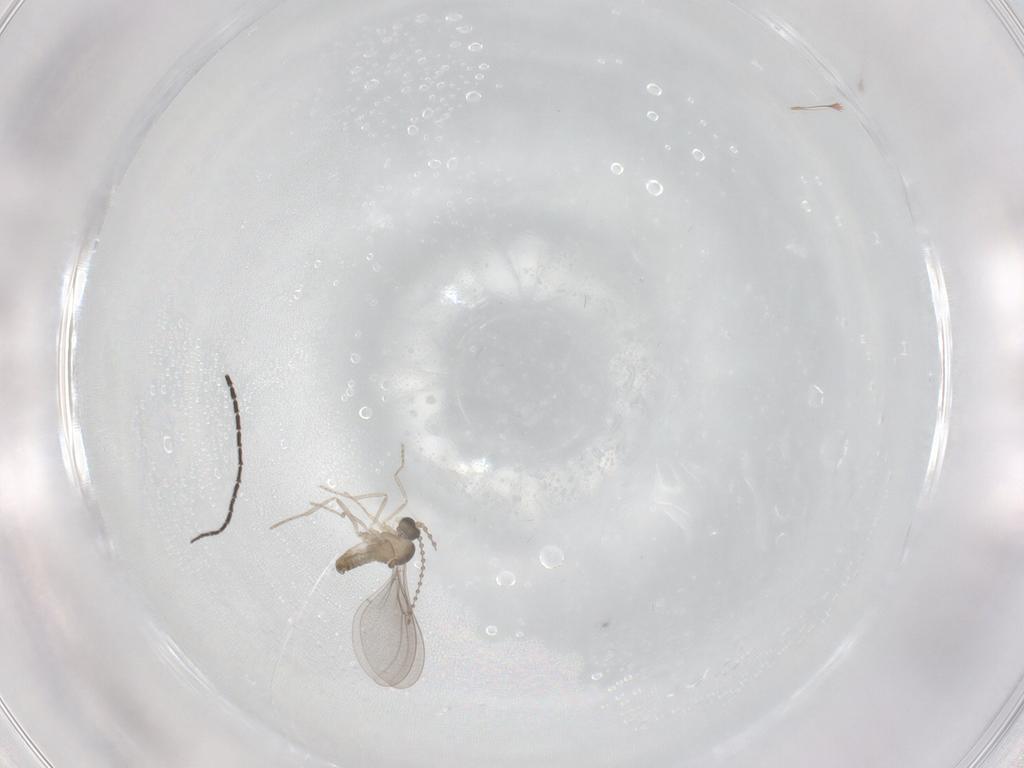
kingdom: Animalia
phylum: Arthropoda
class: Insecta
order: Diptera
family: Cecidomyiidae
